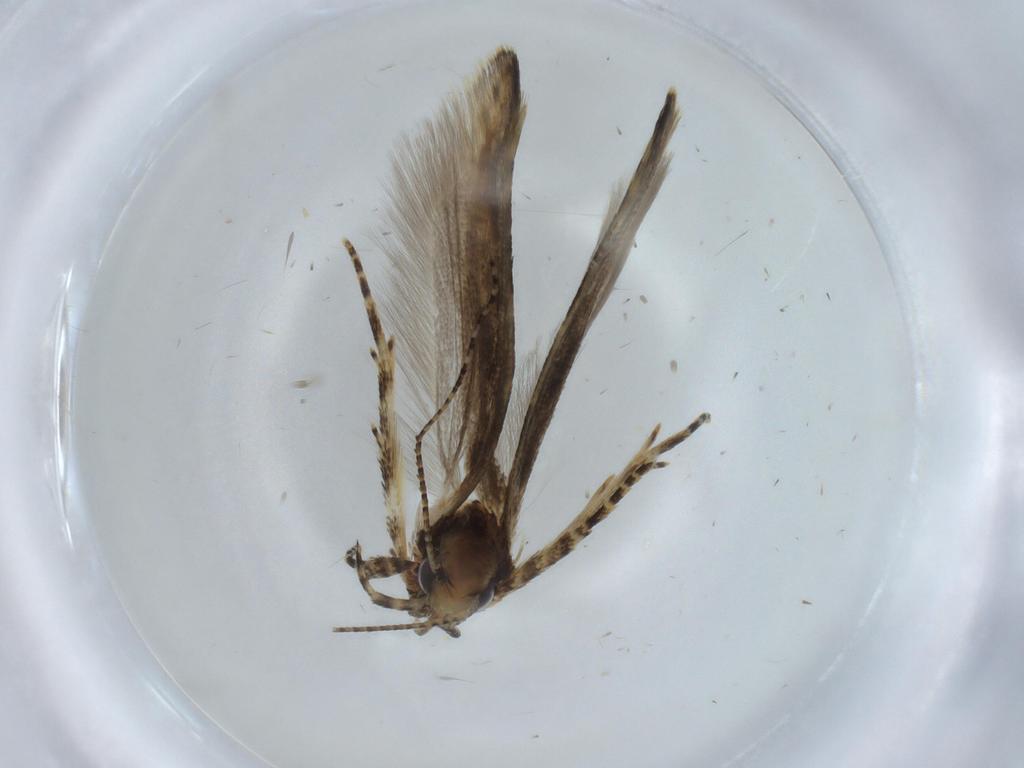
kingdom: Animalia
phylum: Arthropoda
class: Insecta
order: Lepidoptera
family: Gelechiidae
